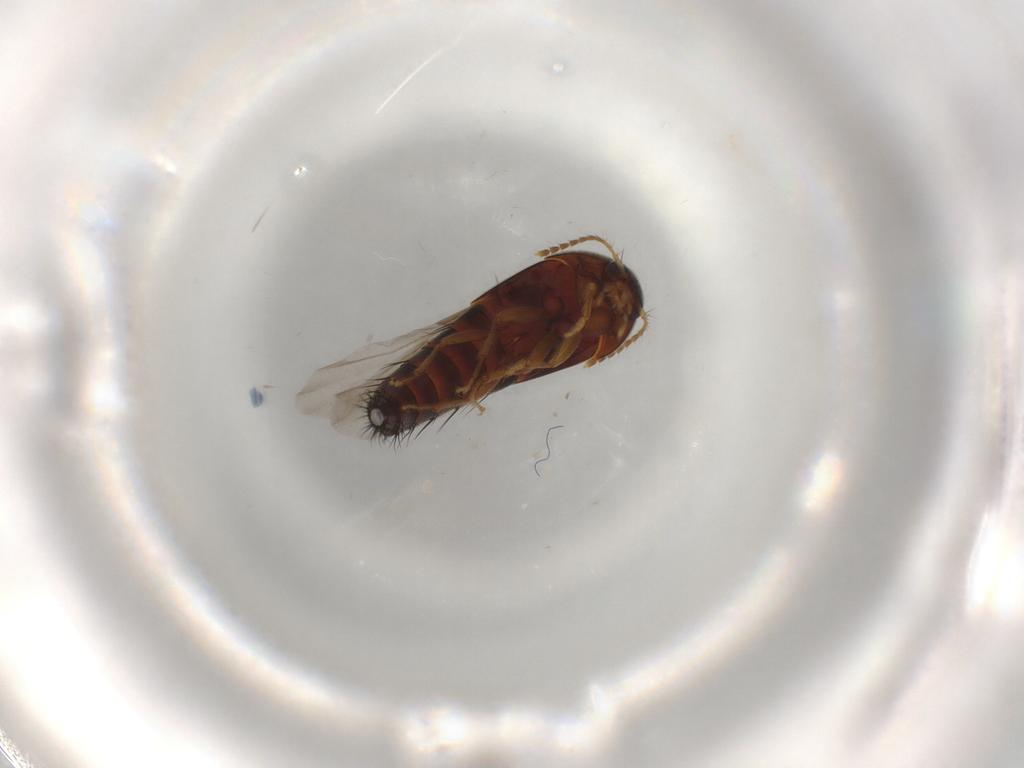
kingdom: Animalia
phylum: Arthropoda
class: Insecta
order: Coleoptera
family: Staphylinidae
